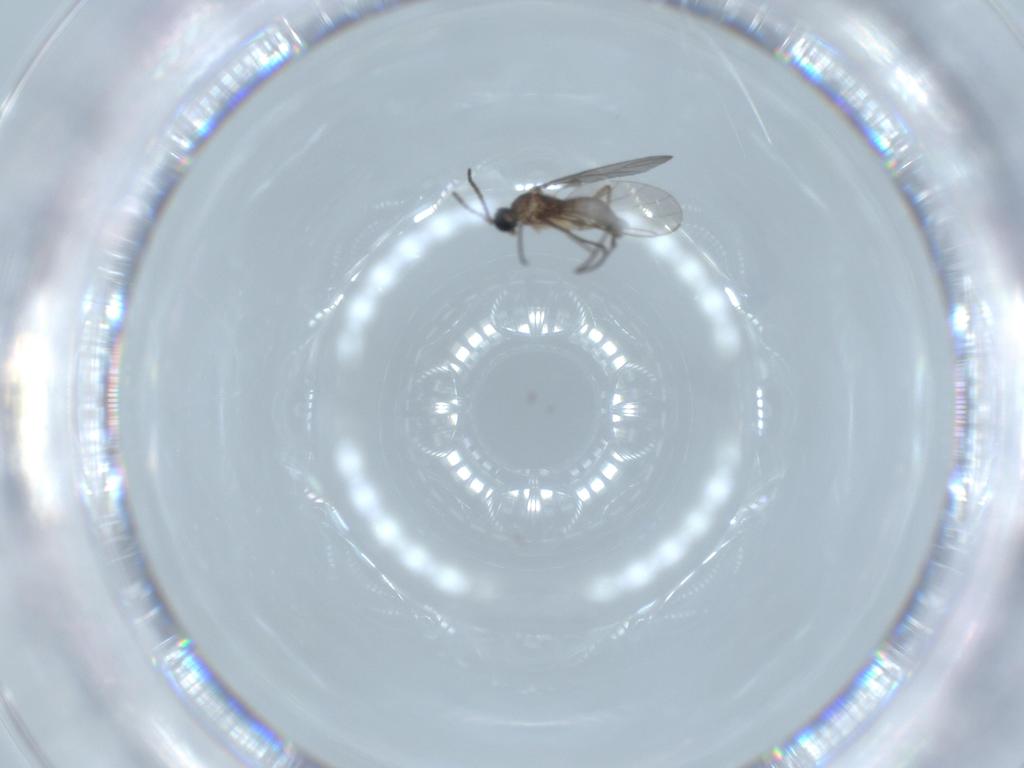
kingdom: Animalia
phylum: Arthropoda
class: Insecta
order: Diptera
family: Sciaridae
